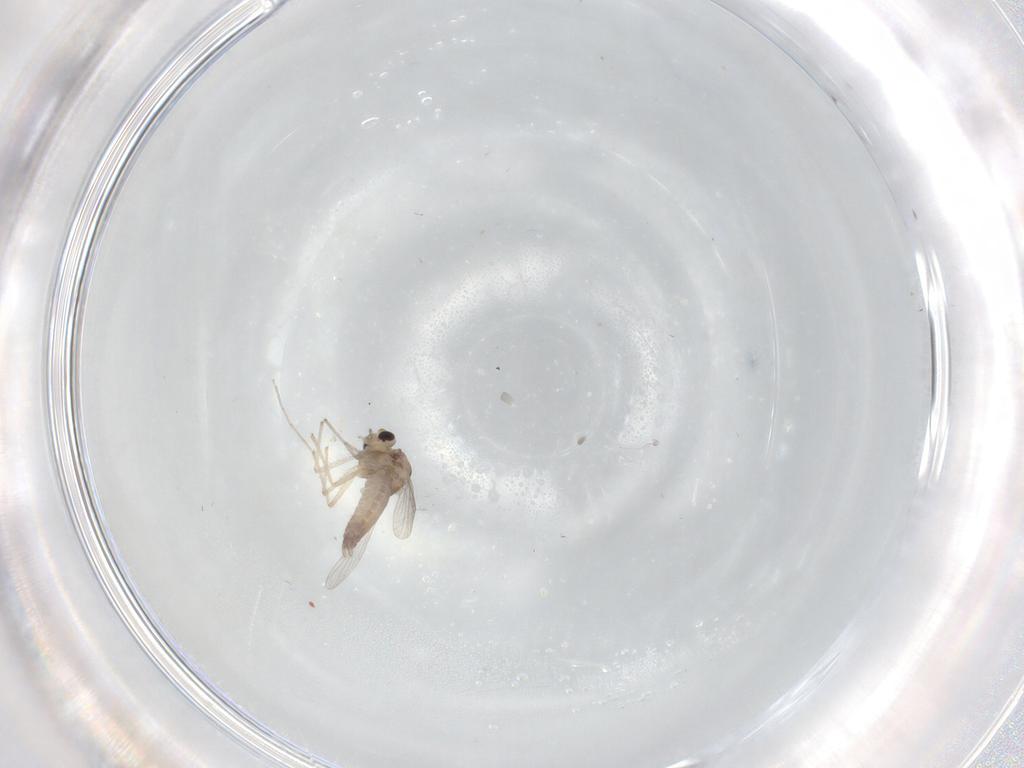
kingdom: Animalia
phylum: Arthropoda
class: Insecta
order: Diptera
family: Chironomidae
